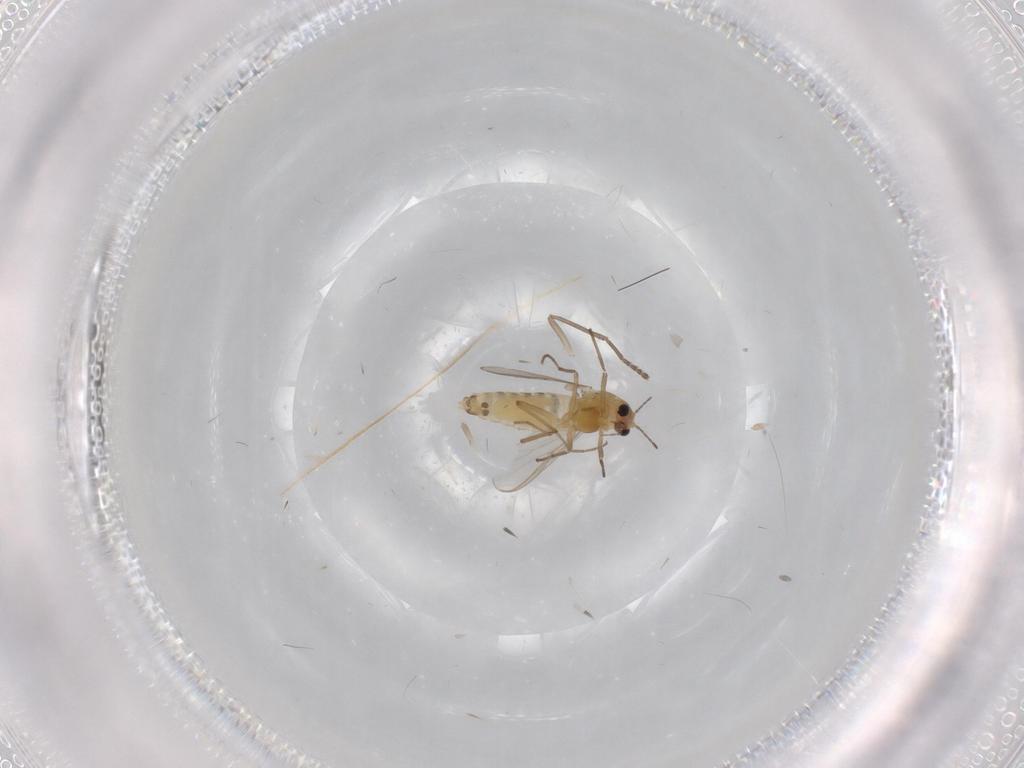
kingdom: Animalia
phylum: Arthropoda
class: Insecta
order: Diptera
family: Chironomidae
